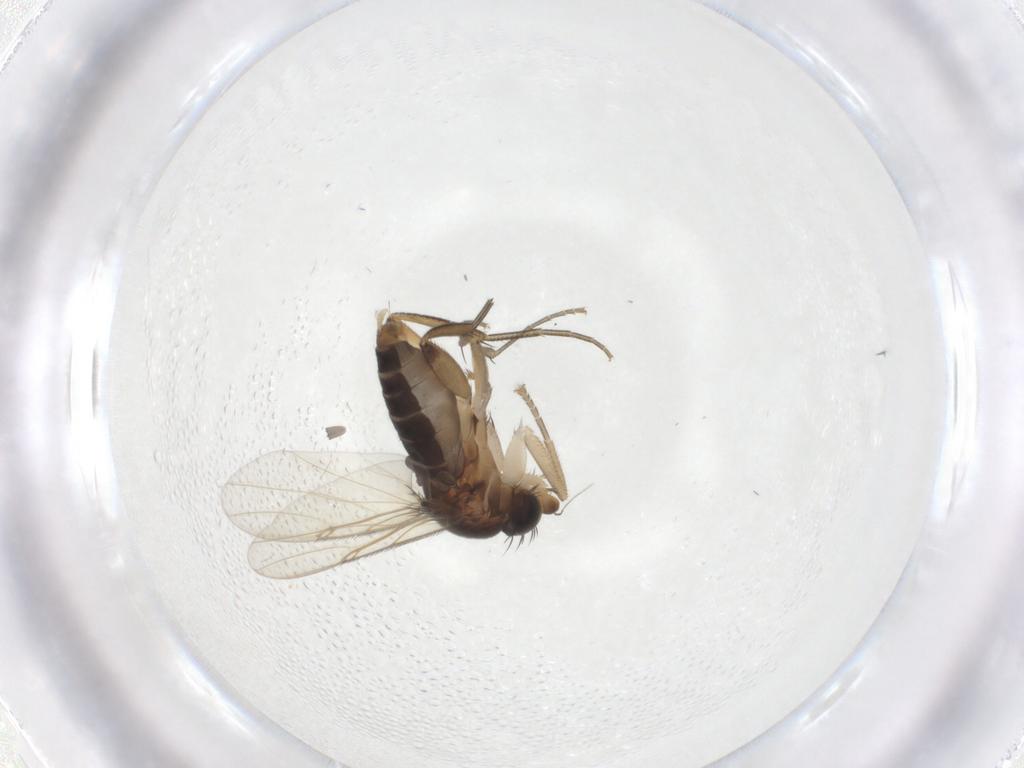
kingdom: Animalia
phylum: Arthropoda
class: Insecta
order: Diptera
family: Phoridae
